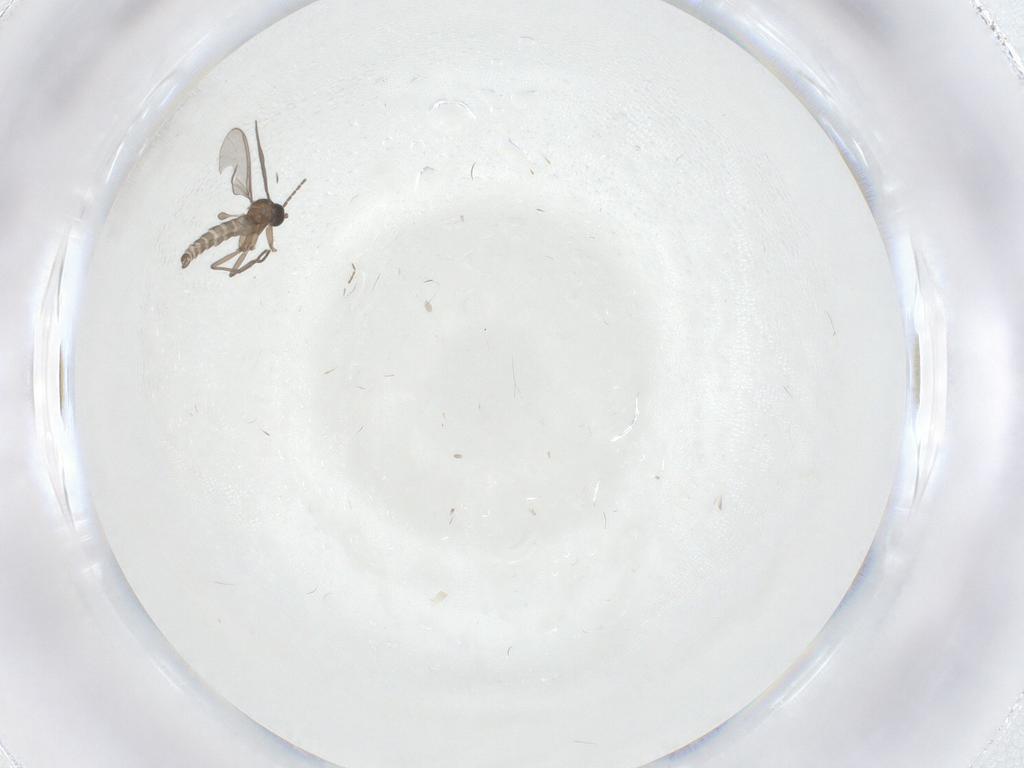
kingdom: Animalia
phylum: Arthropoda
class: Insecta
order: Diptera
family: Chironomidae
